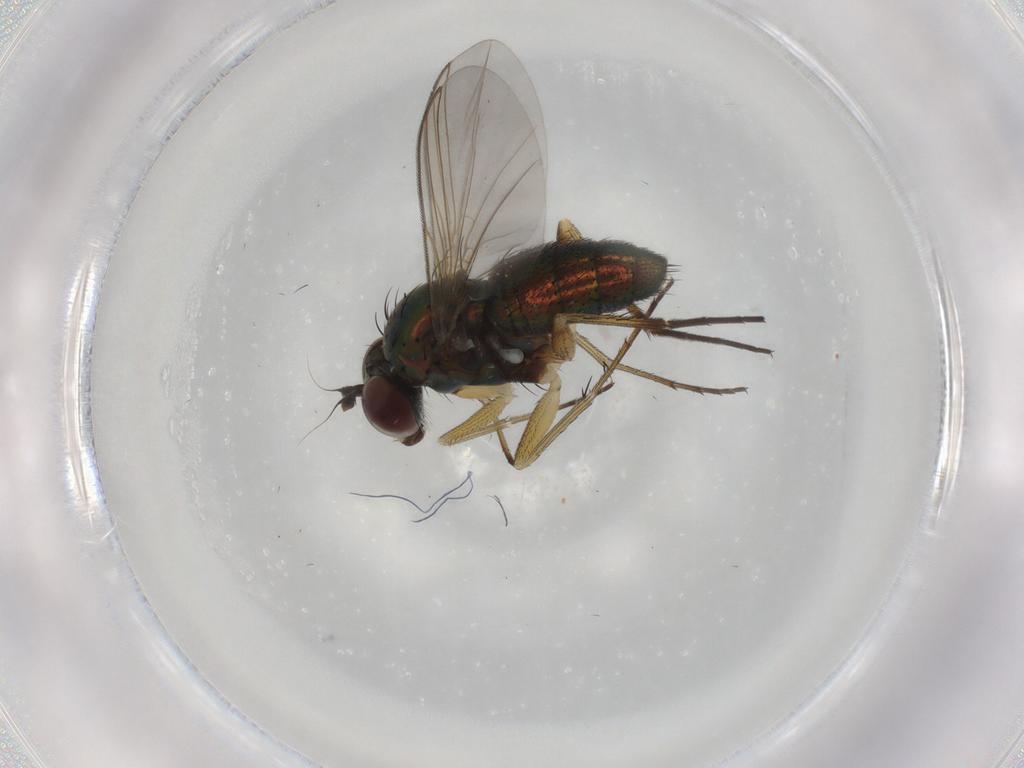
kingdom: Animalia
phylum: Arthropoda
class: Insecta
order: Diptera
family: Dolichopodidae
